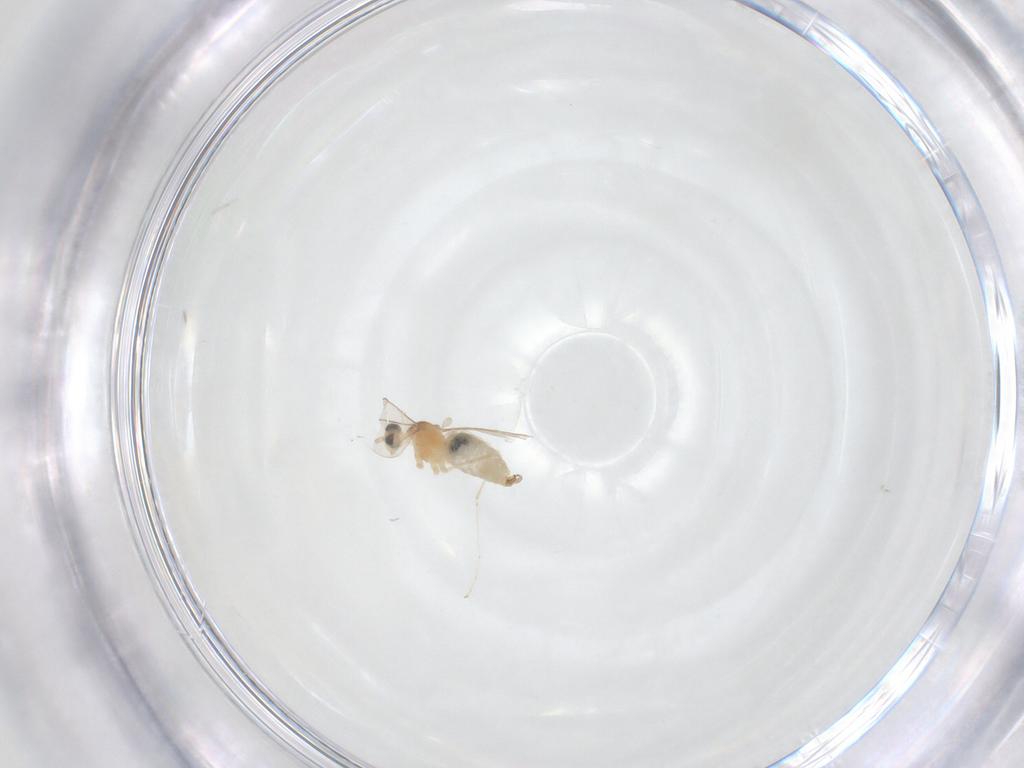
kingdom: Animalia
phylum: Arthropoda
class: Insecta
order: Diptera
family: Cecidomyiidae
